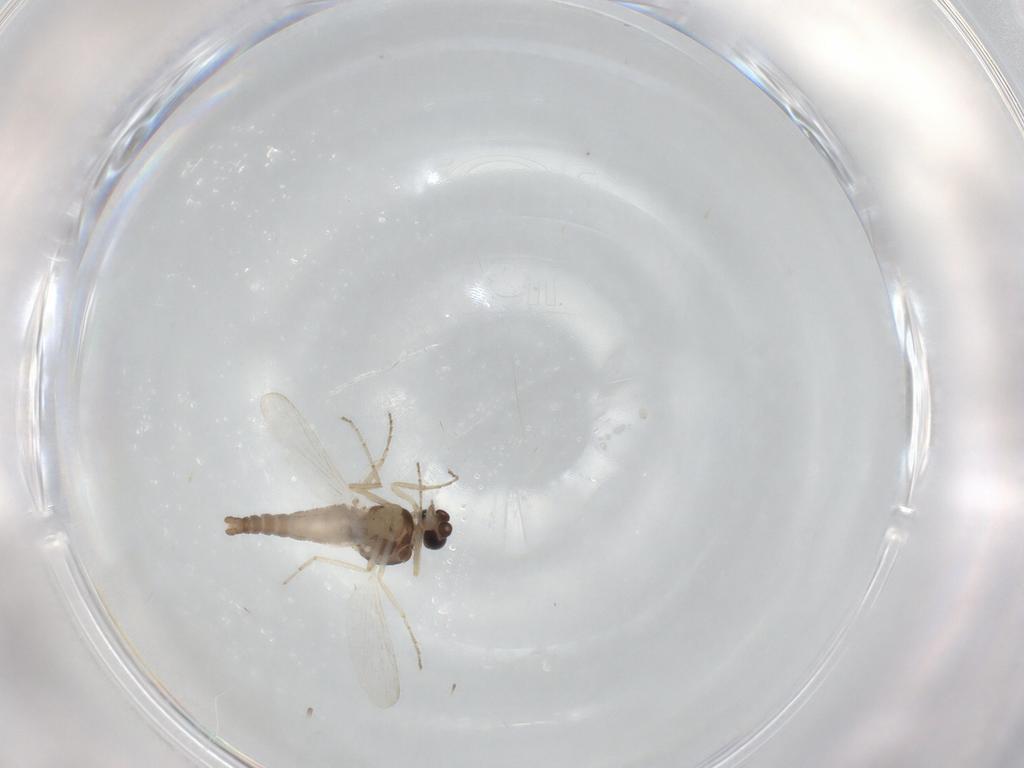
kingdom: Animalia
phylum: Arthropoda
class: Insecta
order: Diptera
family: Ceratopogonidae
